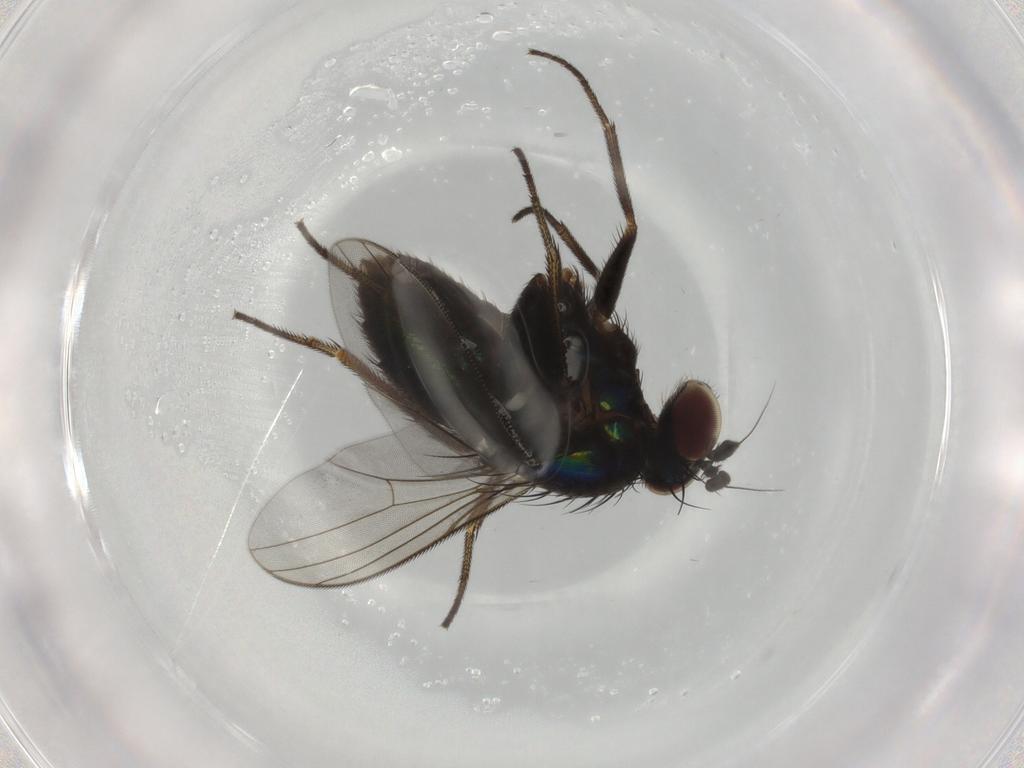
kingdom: Animalia
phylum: Arthropoda
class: Insecta
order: Diptera
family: Dolichopodidae
